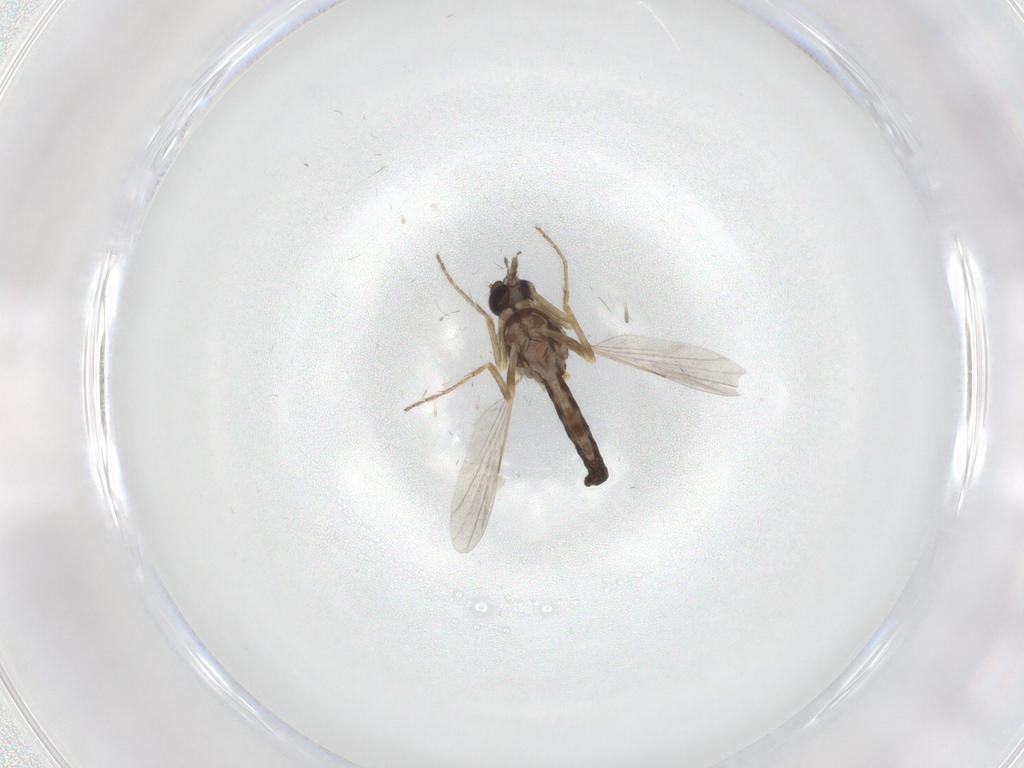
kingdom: Animalia
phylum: Arthropoda
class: Insecta
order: Diptera
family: Ceratopogonidae
